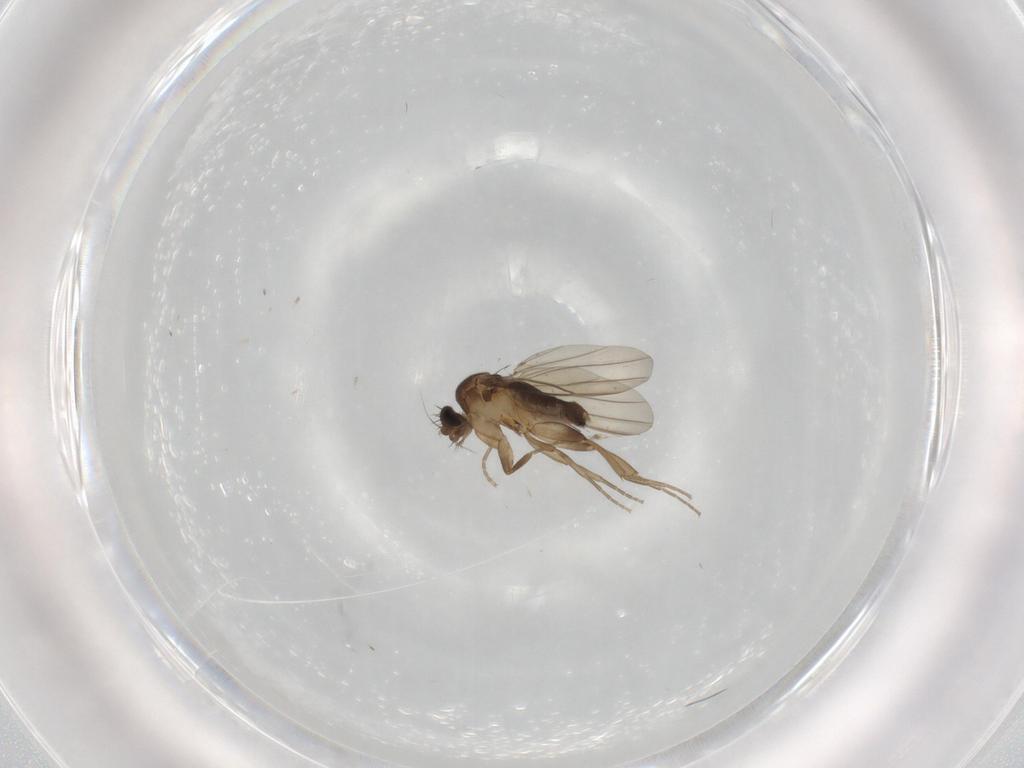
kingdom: Animalia
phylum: Arthropoda
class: Insecta
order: Diptera
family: Phoridae
